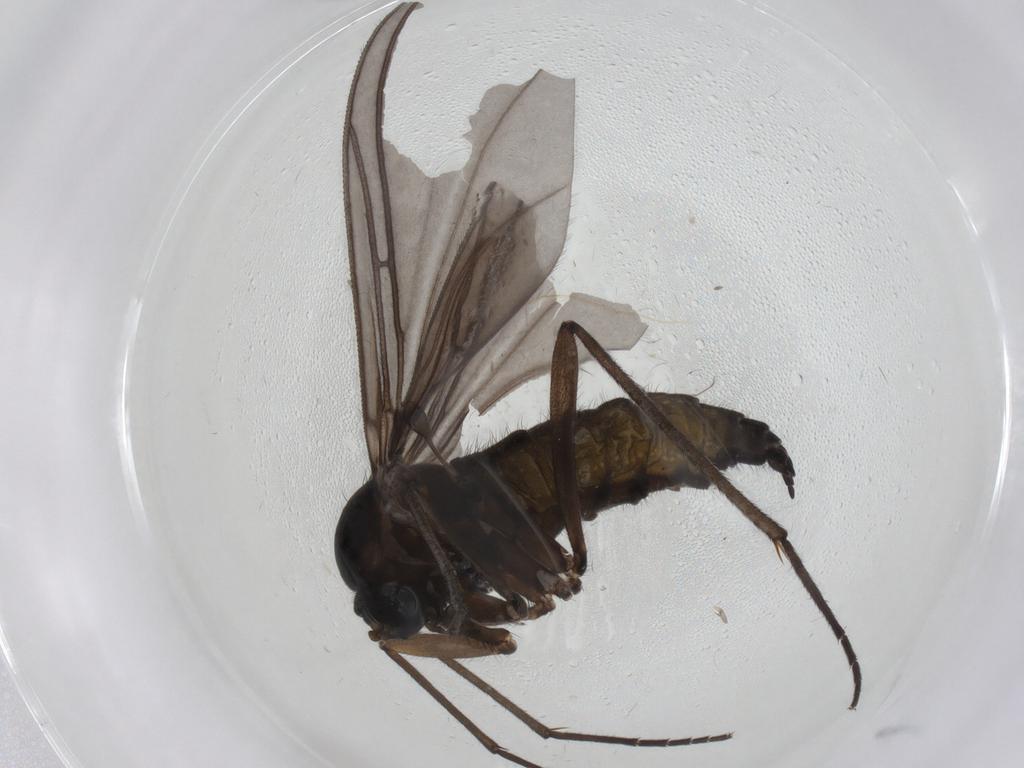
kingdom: Animalia
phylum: Arthropoda
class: Insecta
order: Diptera
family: Sciaridae
